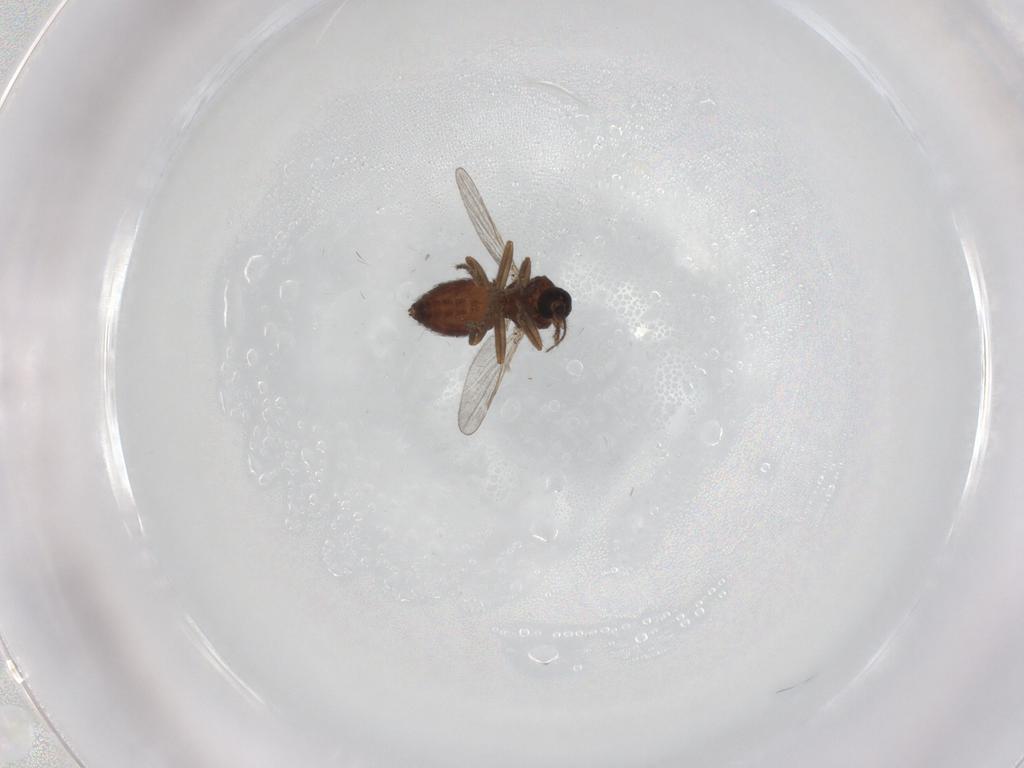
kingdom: Animalia
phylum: Arthropoda
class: Insecta
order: Diptera
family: Ceratopogonidae
